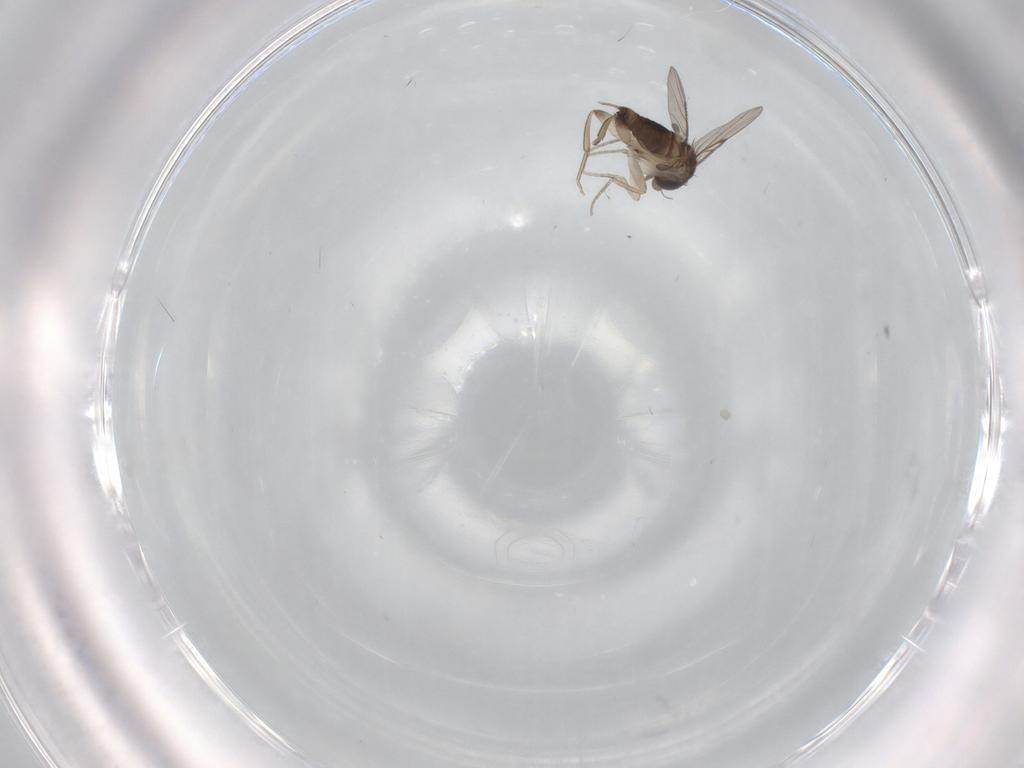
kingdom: Animalia
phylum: Arthropoda
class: Insecta
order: Diptera
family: Phoridae
